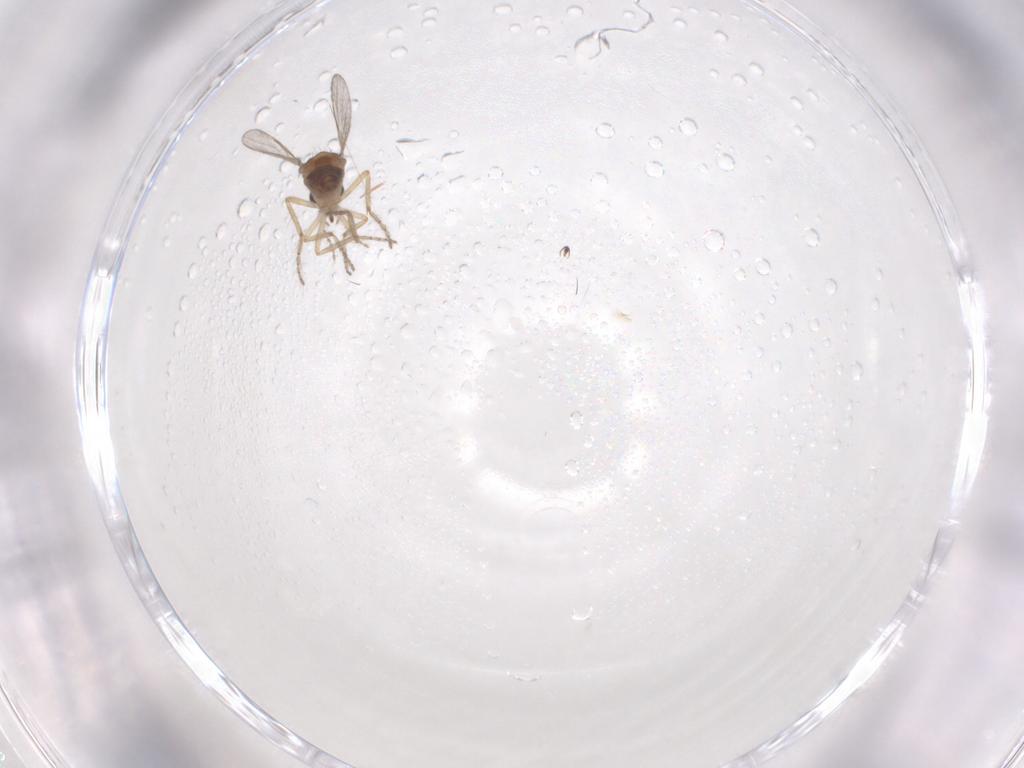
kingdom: Animalia
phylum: Arthropoda
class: Insecta
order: Diptera
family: Ceratopogonidae
